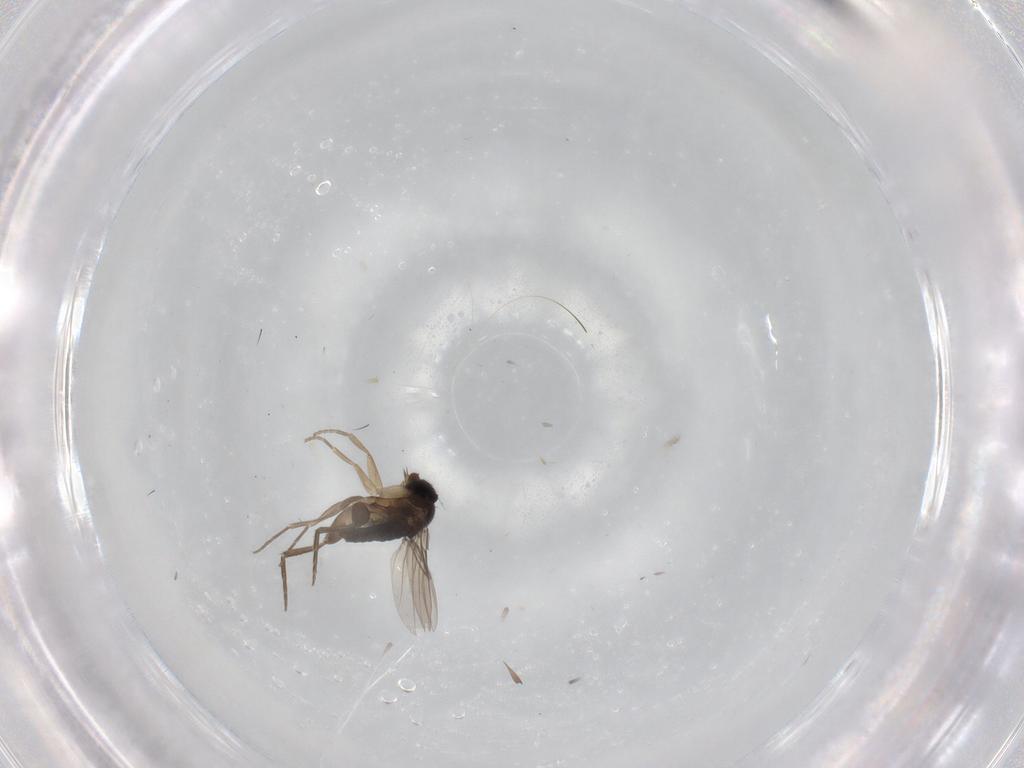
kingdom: Animalia
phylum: Arthropoda
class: Insecta
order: Diptera
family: Phoridae
